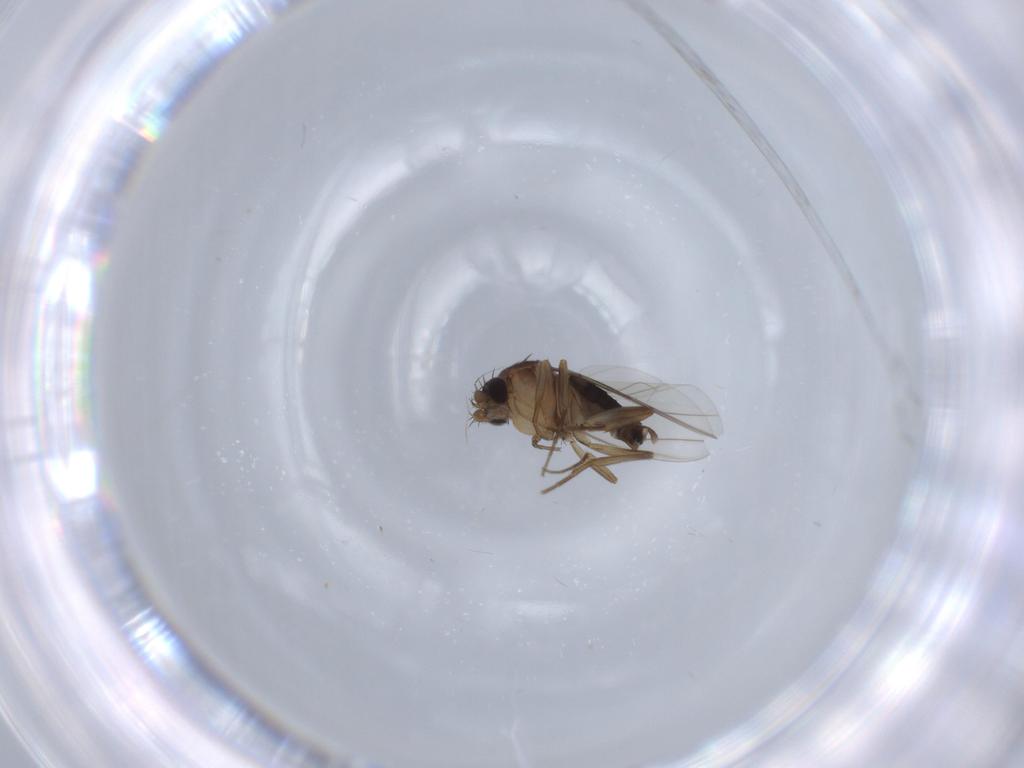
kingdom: Animalia
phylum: Arthropoda
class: Insecta
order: Diptera
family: Phoridae
